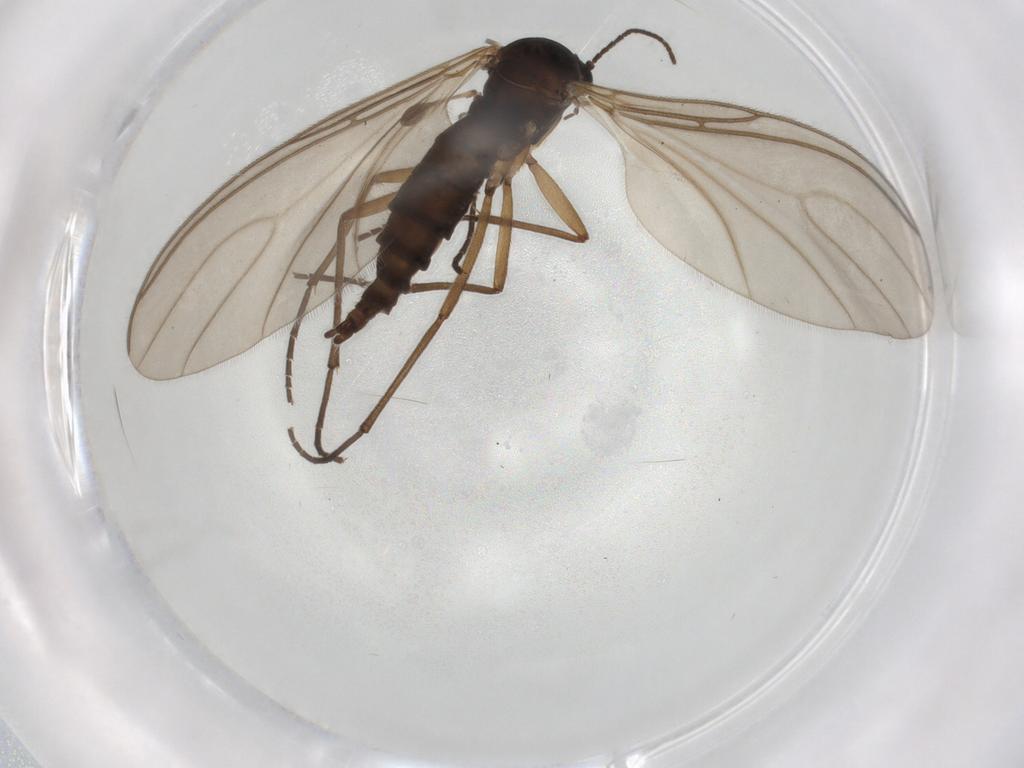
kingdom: Animalia
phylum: Arthropoda
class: Insecta
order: Diptera
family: Sciaridae
